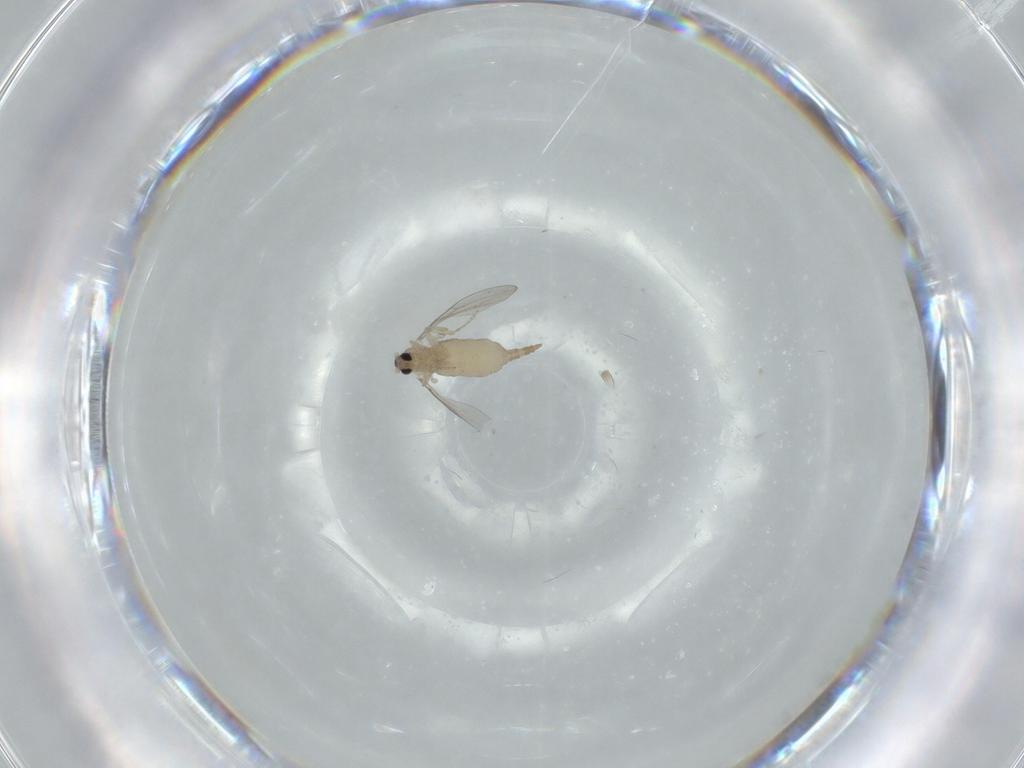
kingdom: Animalia
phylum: Arthropoda
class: Insecta
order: Diptera
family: Cecidomyiidae
